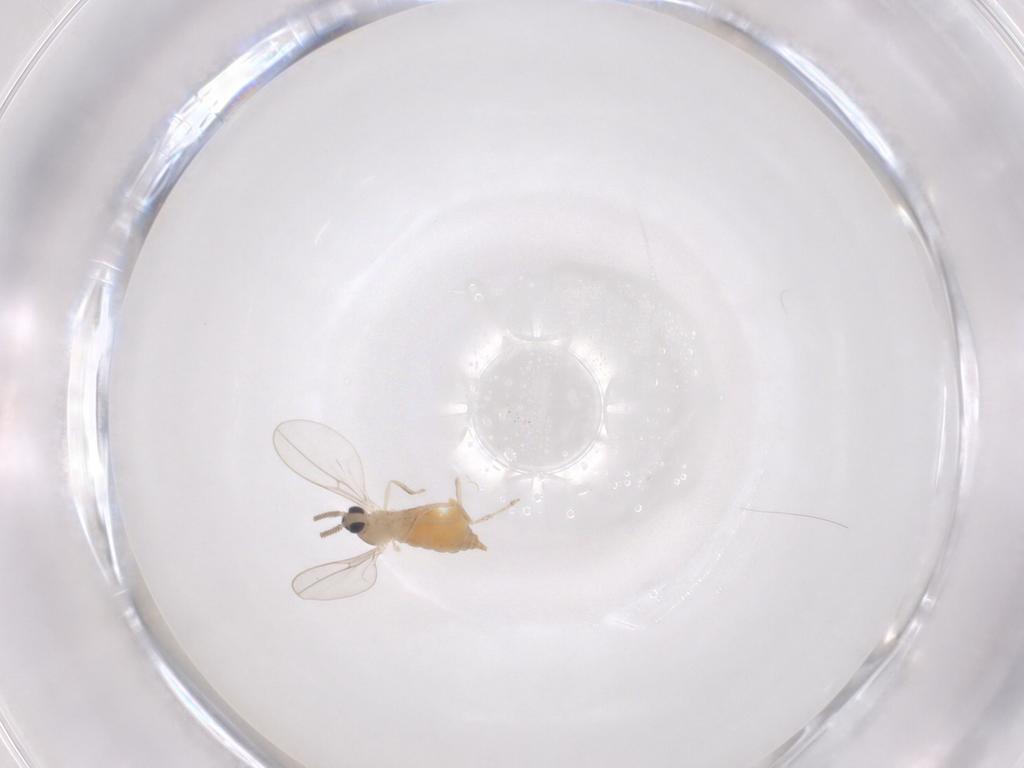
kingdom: Animalia
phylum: Arthropoda
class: Insecta
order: Diptera
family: Cecidomyiidae
